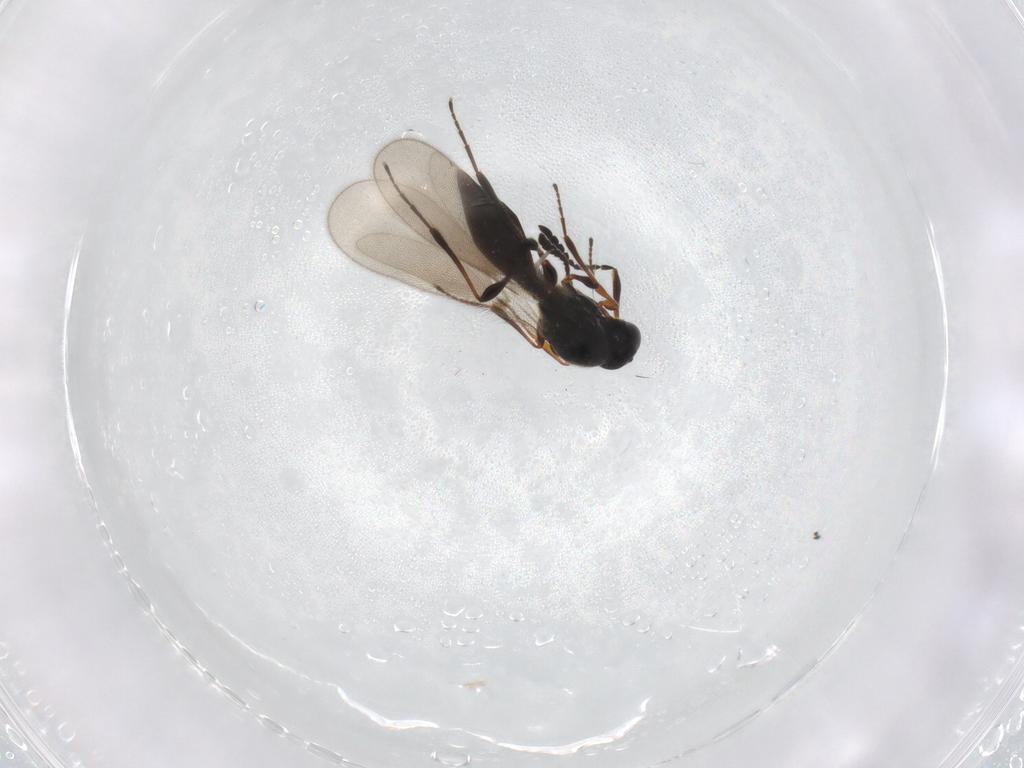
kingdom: Animalia
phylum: Arthropoda
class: Insecta
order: Hymenoptera
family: Platygastridae
